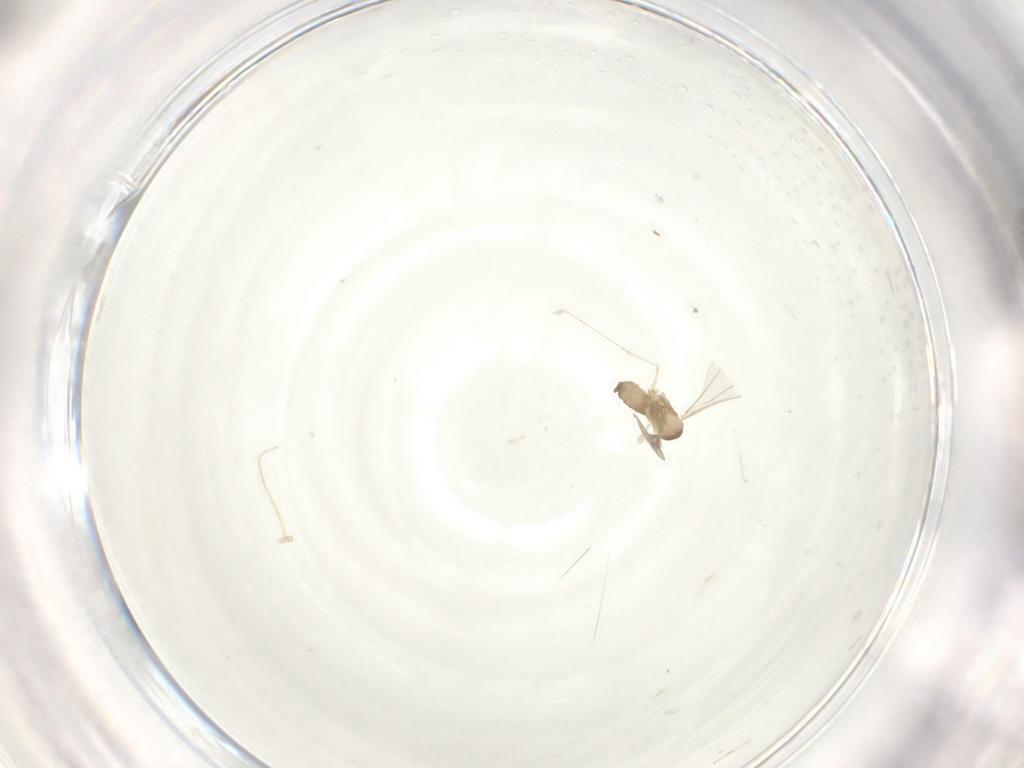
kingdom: Animalia
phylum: Arthropoda
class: Insecta
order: Diptera
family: Cecidomyiidae
